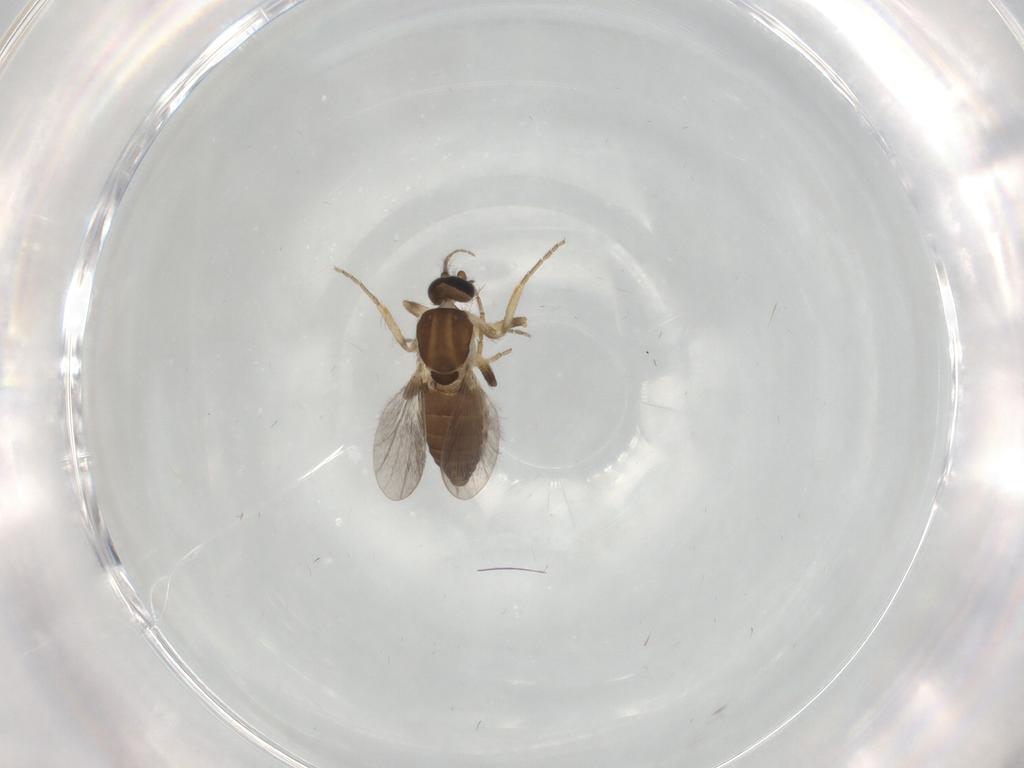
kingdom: Animalia
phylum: Arthropoda
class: Insecta
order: Diptera
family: Ceratopogonidae
